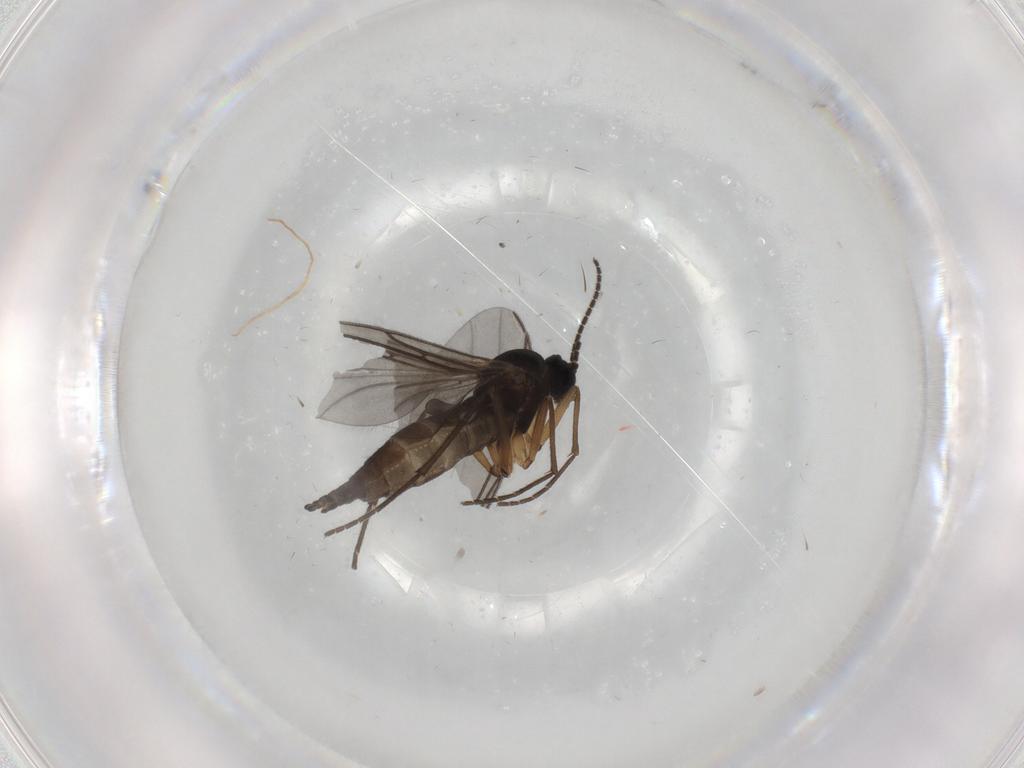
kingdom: Animalia
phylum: Arthropoda
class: Insecta
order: Diptera
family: Sciaridae
